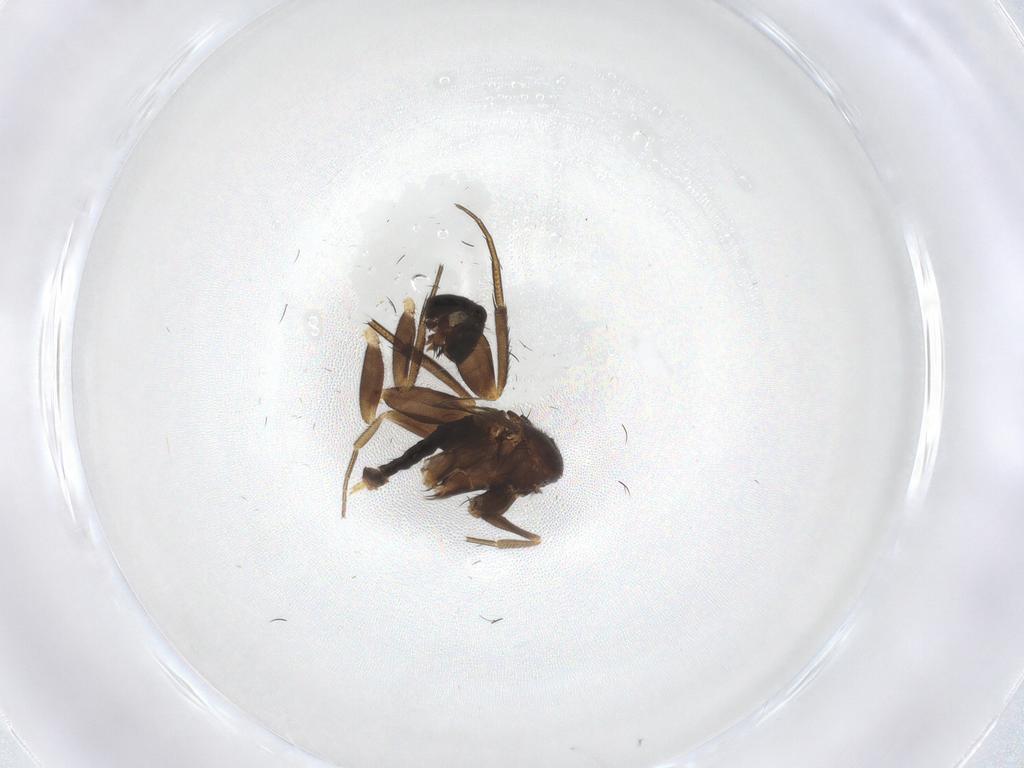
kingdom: Animalia
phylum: Arthropoda
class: Insecta
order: Diptera
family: Phoridae
